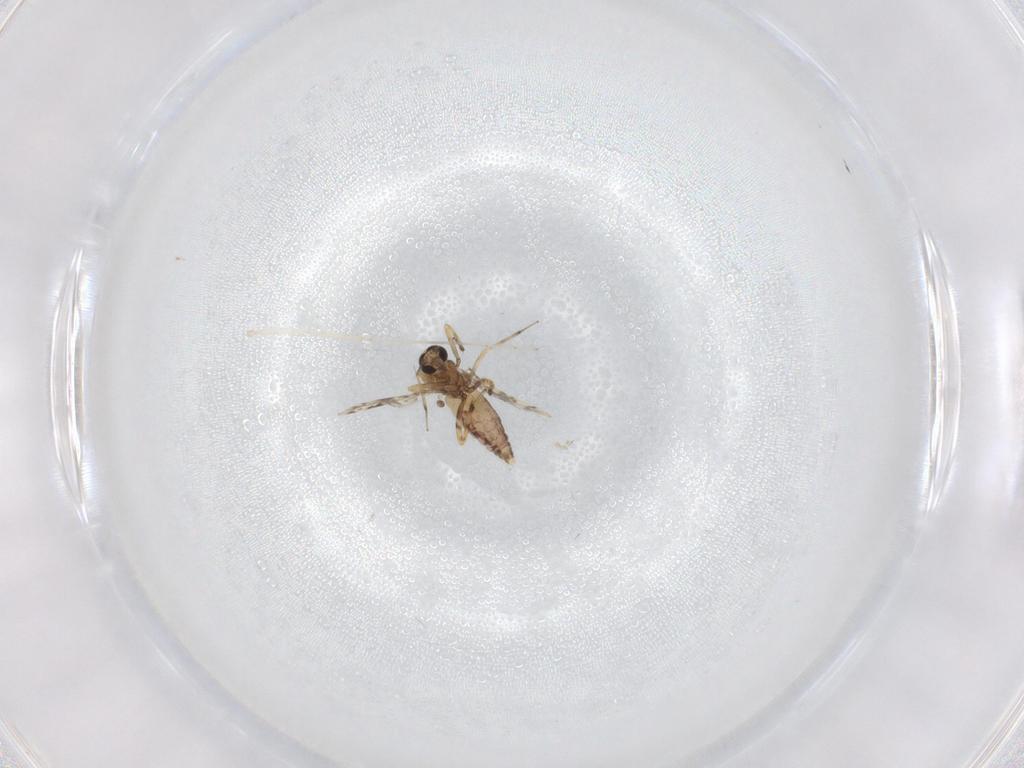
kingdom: Animalia
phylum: Arthropoda
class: Insecta
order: Diptera
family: Ceratopogonidae
